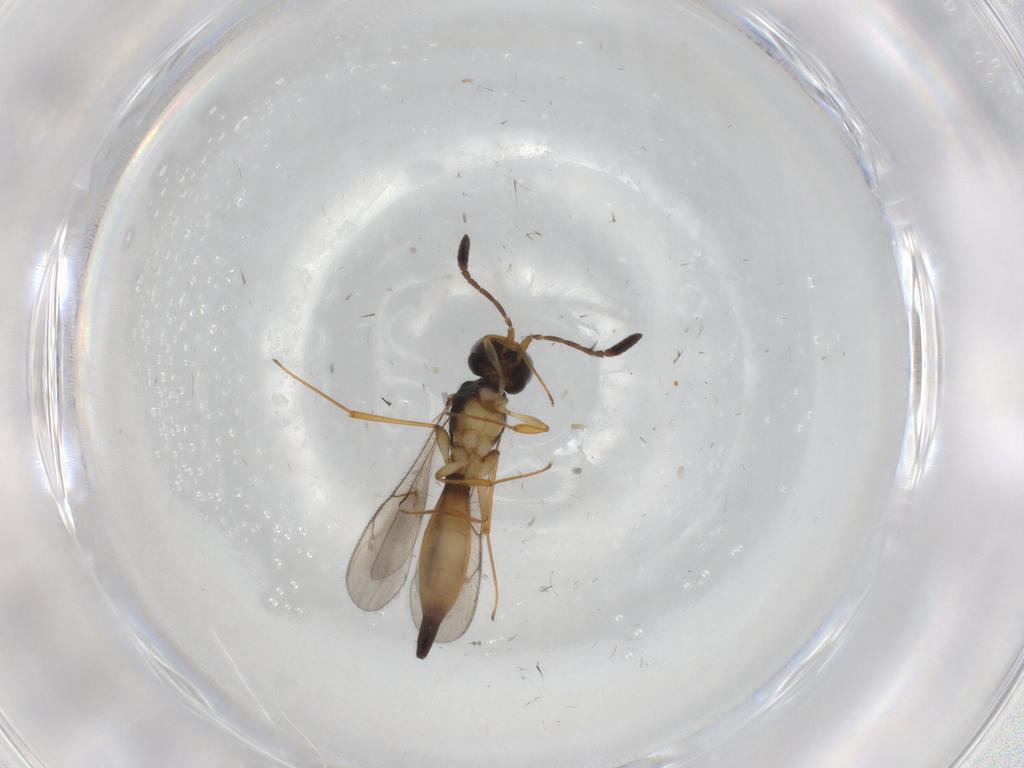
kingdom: Animalia
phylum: Arthropoda
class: Insecta
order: Hymenoptera
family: Scelionidae
